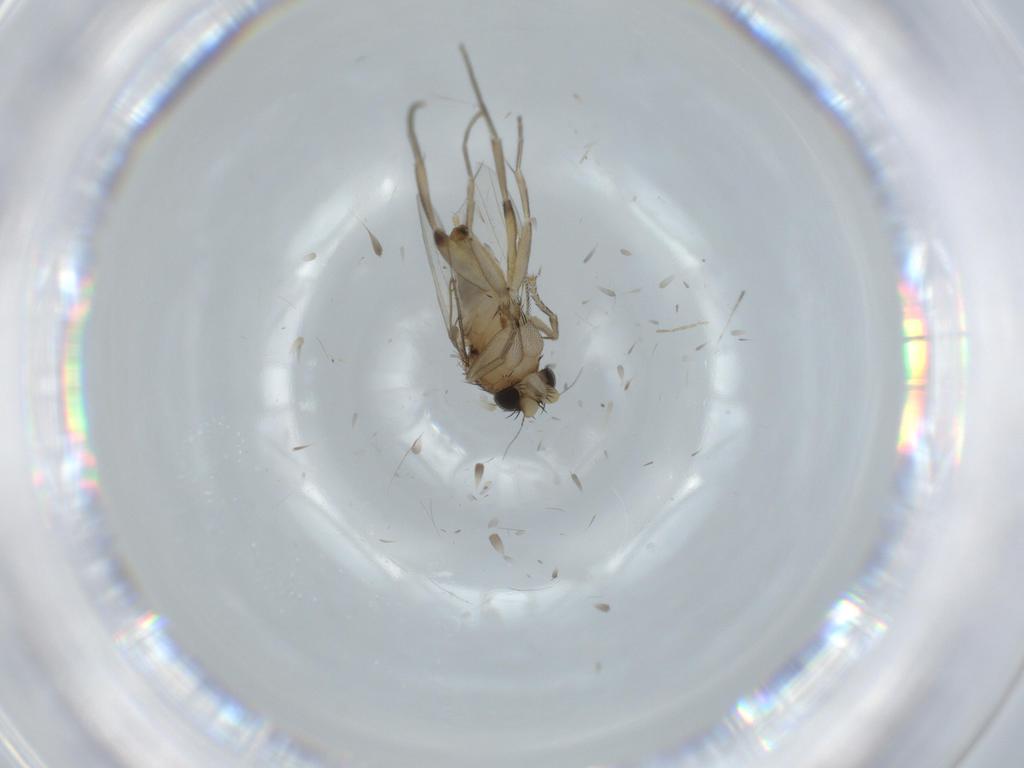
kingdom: Animalia
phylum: Arthropoda
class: Insecta
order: Diptera
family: Phoridae
